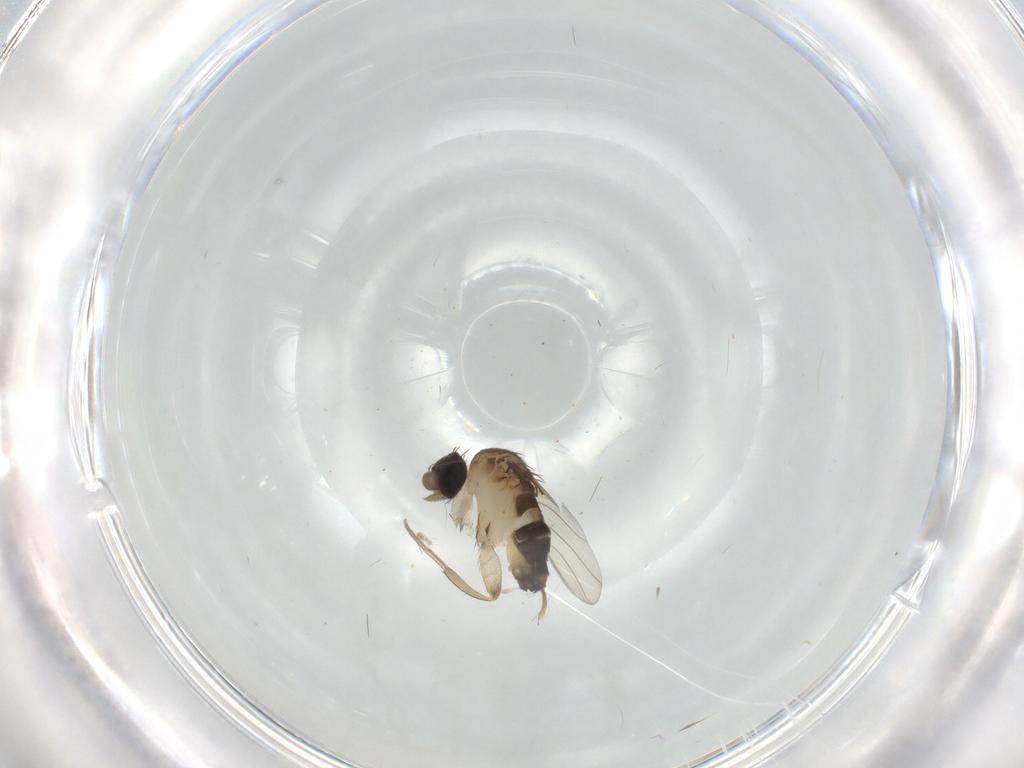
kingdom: Animalia
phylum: Arthropoda
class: Insecta
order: Diptera
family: Phoridae
